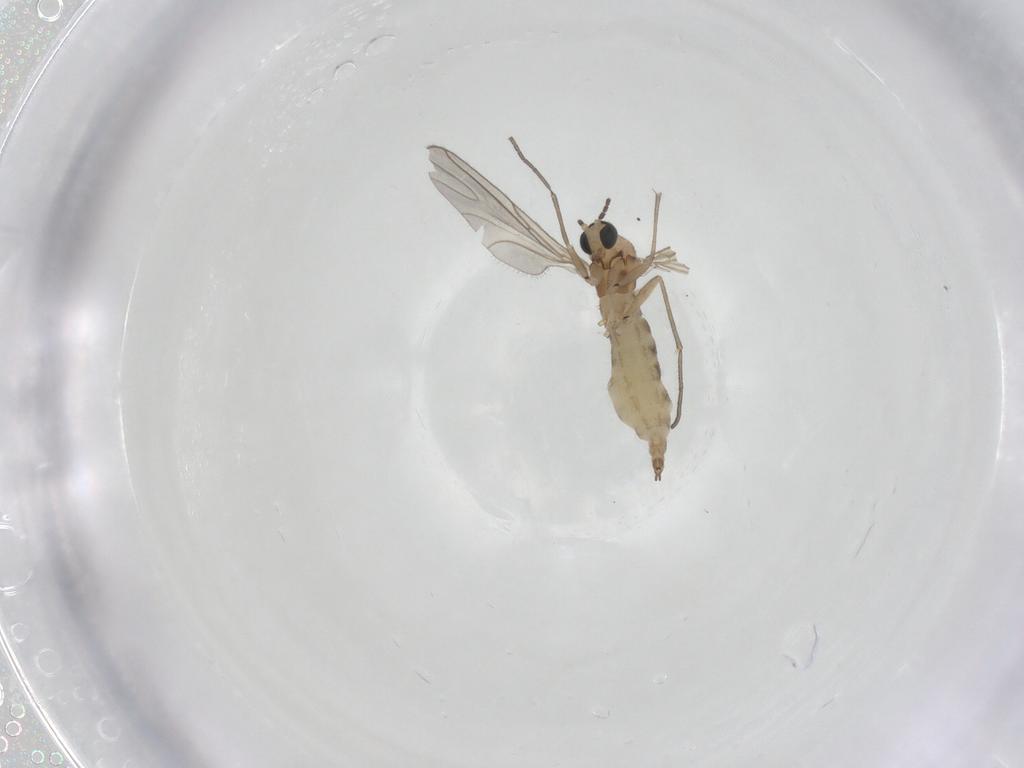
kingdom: Animalia
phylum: Arthropoda
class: Insecta
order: Diptera
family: Sciaridae
